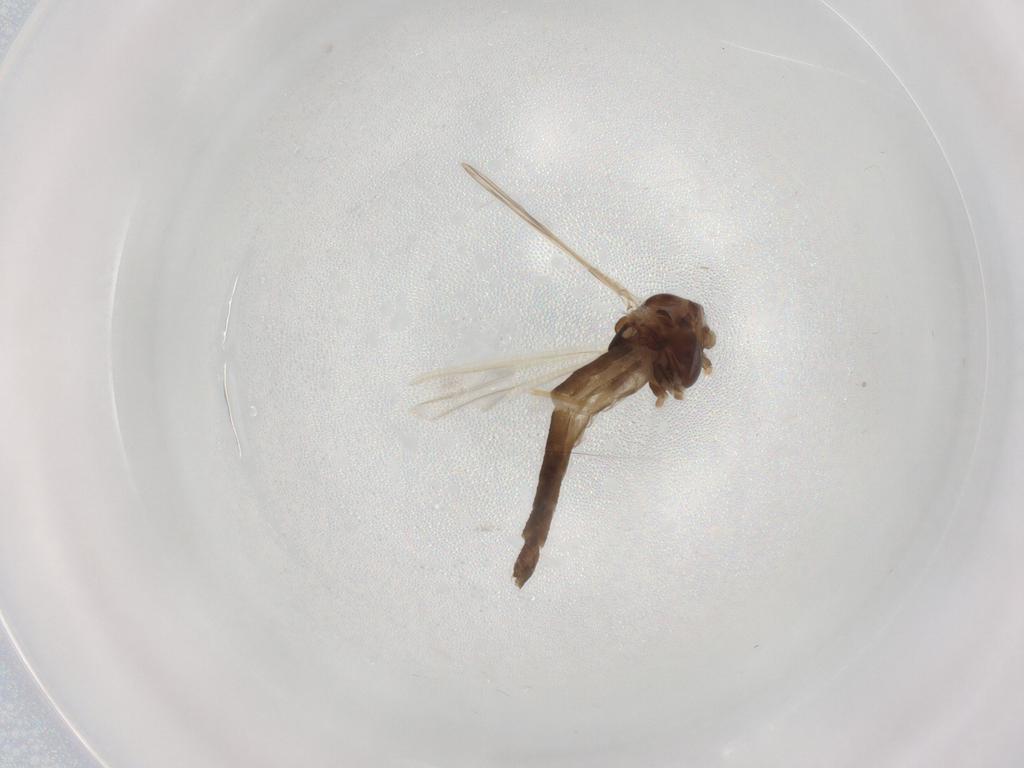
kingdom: Animalia
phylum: Arthropoda
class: Insecta
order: Diptera
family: Chironomidae
